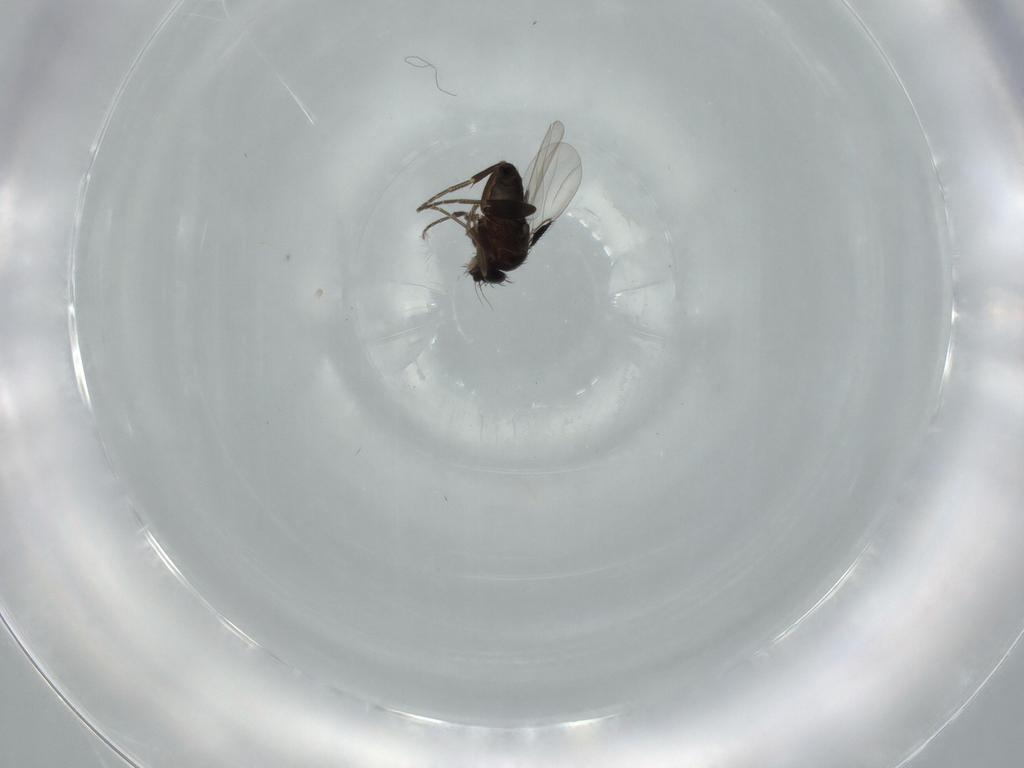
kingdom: Animalia
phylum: Arthropoda
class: Insecta
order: Diptera
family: Phoridae
